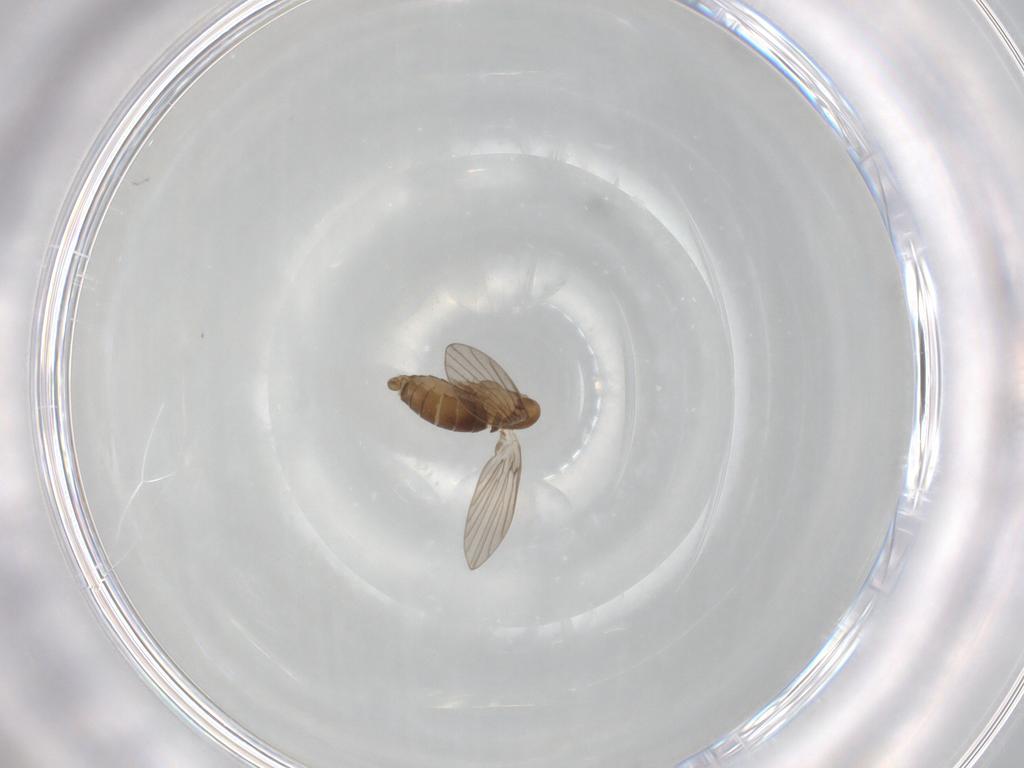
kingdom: Animalia
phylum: Arthropoda
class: Insecta
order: Diptera
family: Psychodidae
